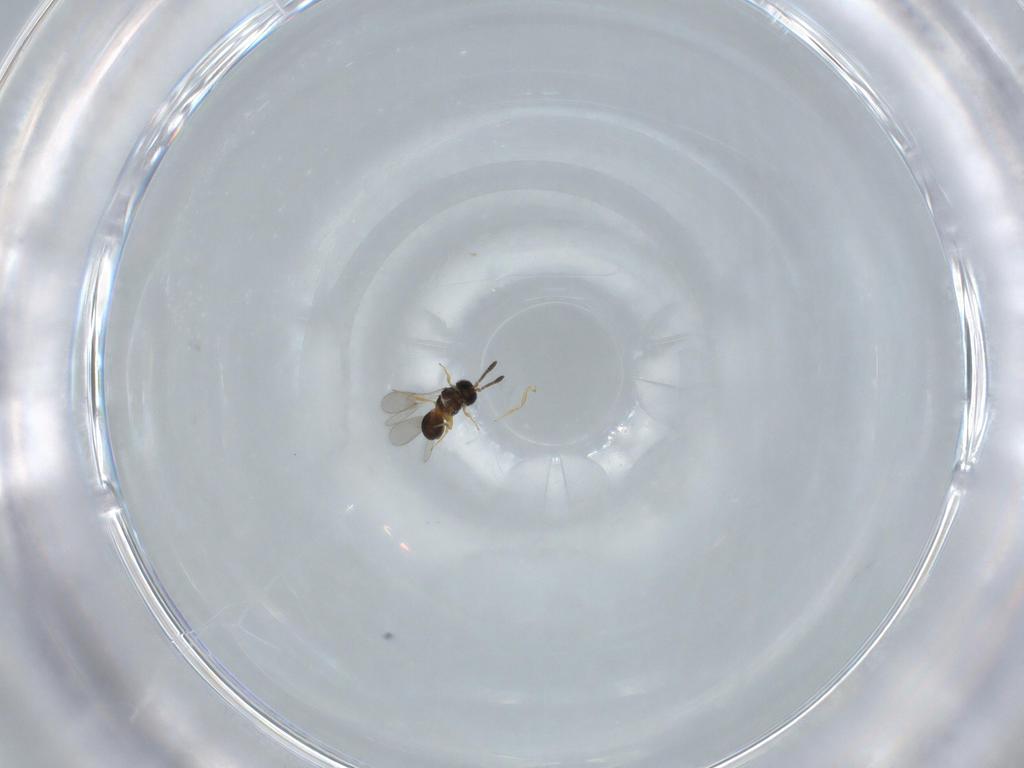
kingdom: Animalia
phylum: Arthropoda
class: Insecta
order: Hymenoptera
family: Scelionidae
